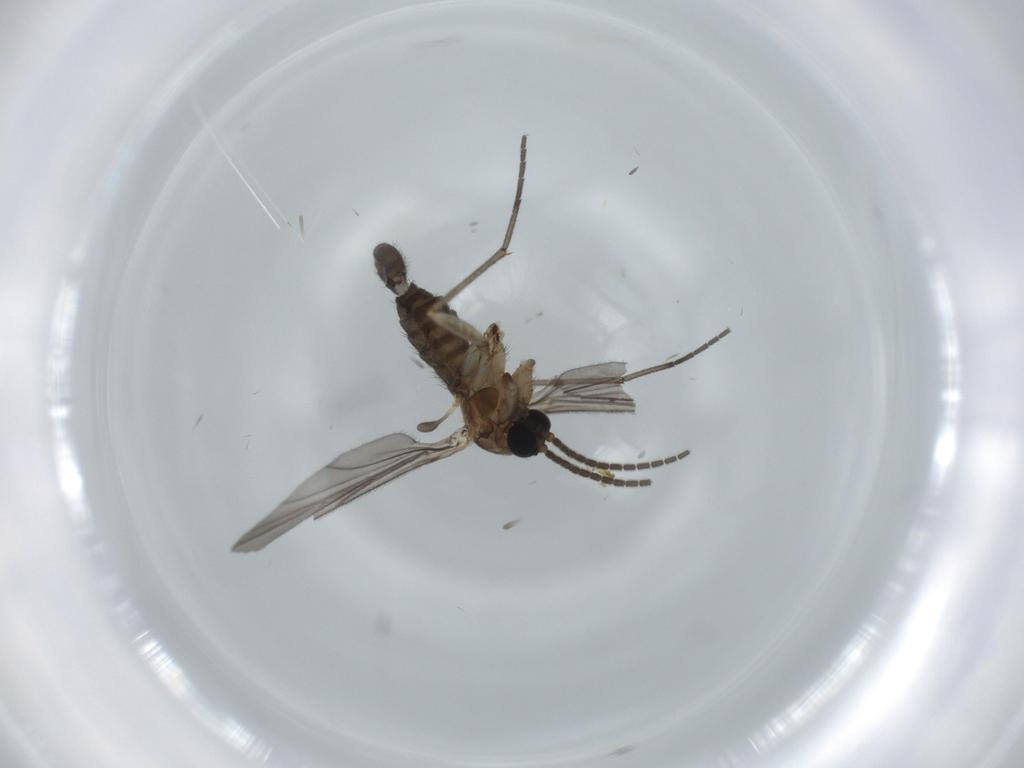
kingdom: Animalia
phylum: Arthropoda
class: Insecta
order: Diptera
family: Sciaridae
